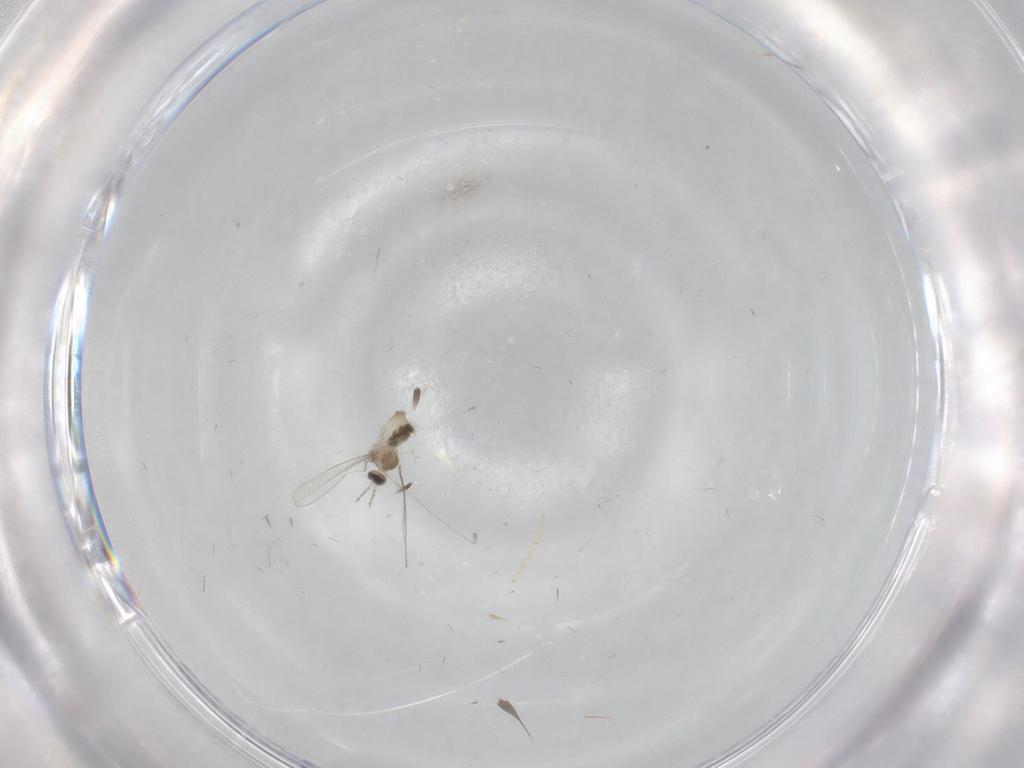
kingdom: Animalia
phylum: Arthropoda
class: Insecta
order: Diptera
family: Cecidomyiidae
